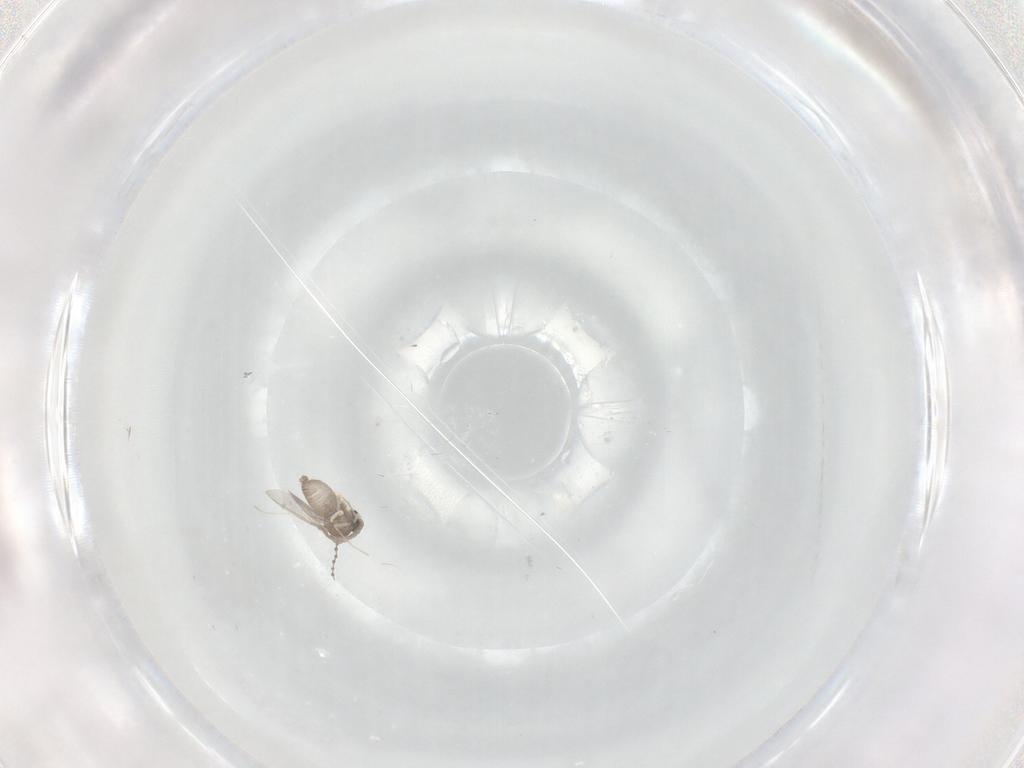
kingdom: Animalia
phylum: Arthropoda
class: Insecta
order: Diptera
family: Cecidomyiidae
